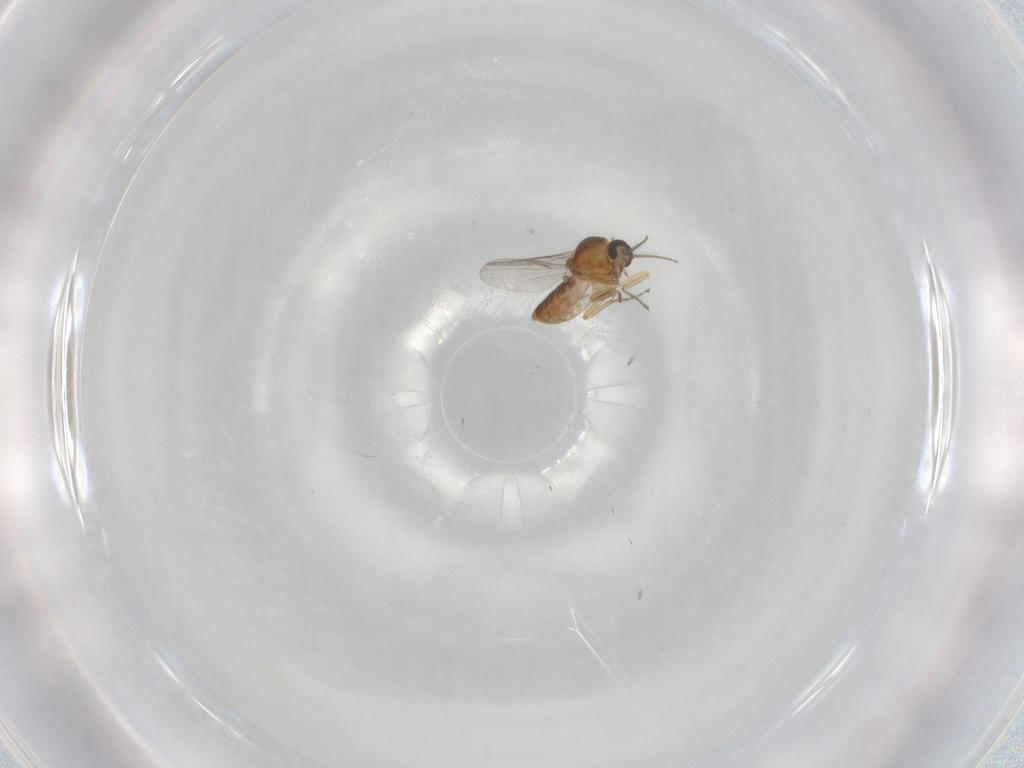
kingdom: Animalia
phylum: Arthropoda
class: Insecta
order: Diptera
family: Ceratopogonidae
